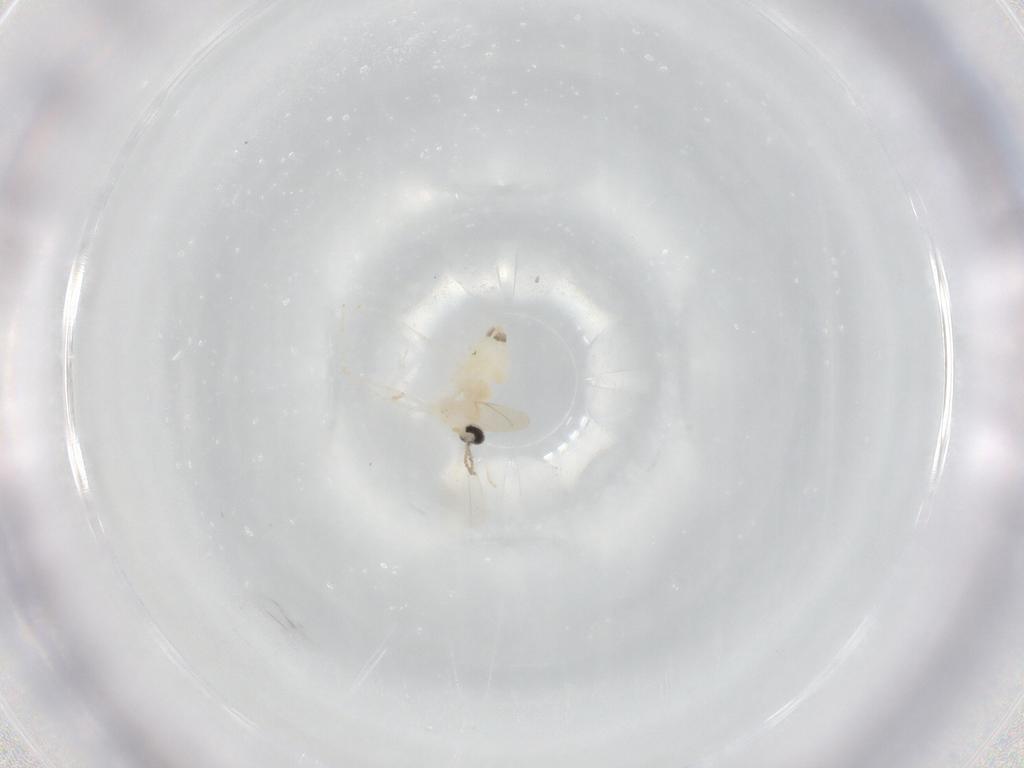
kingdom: Animalia
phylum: Arthropoda
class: Insecta
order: Diptera
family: Cecidomyiidae
